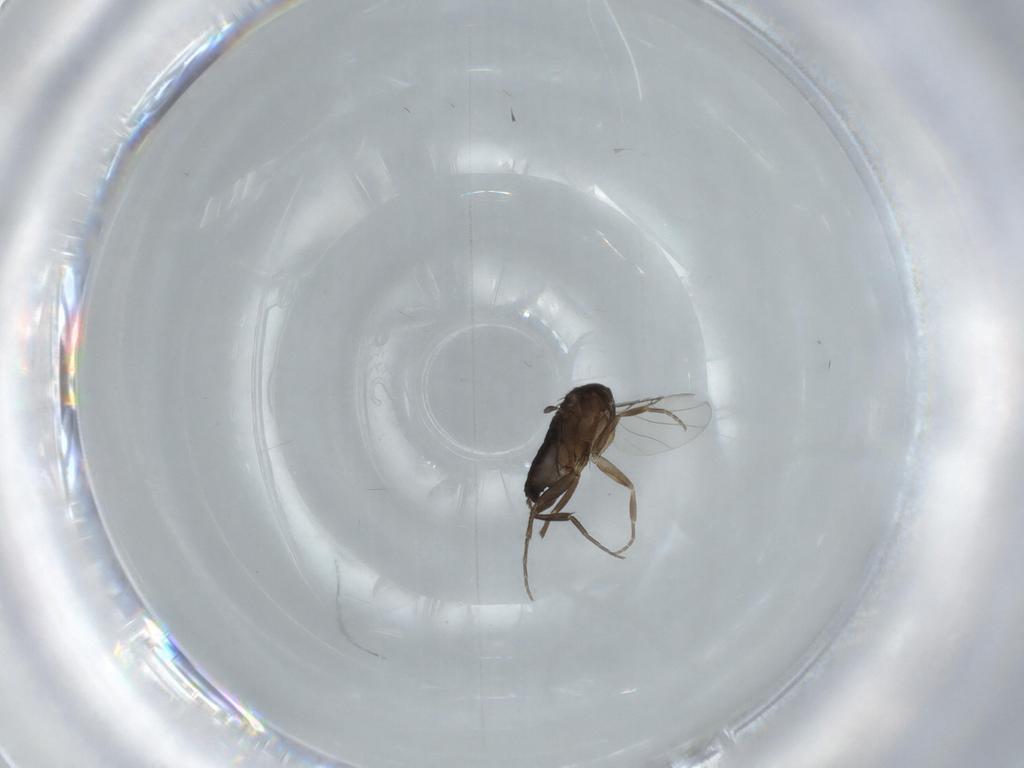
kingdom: Animalia
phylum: Arthropoda
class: Insecta
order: Diptera
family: Phoridae
